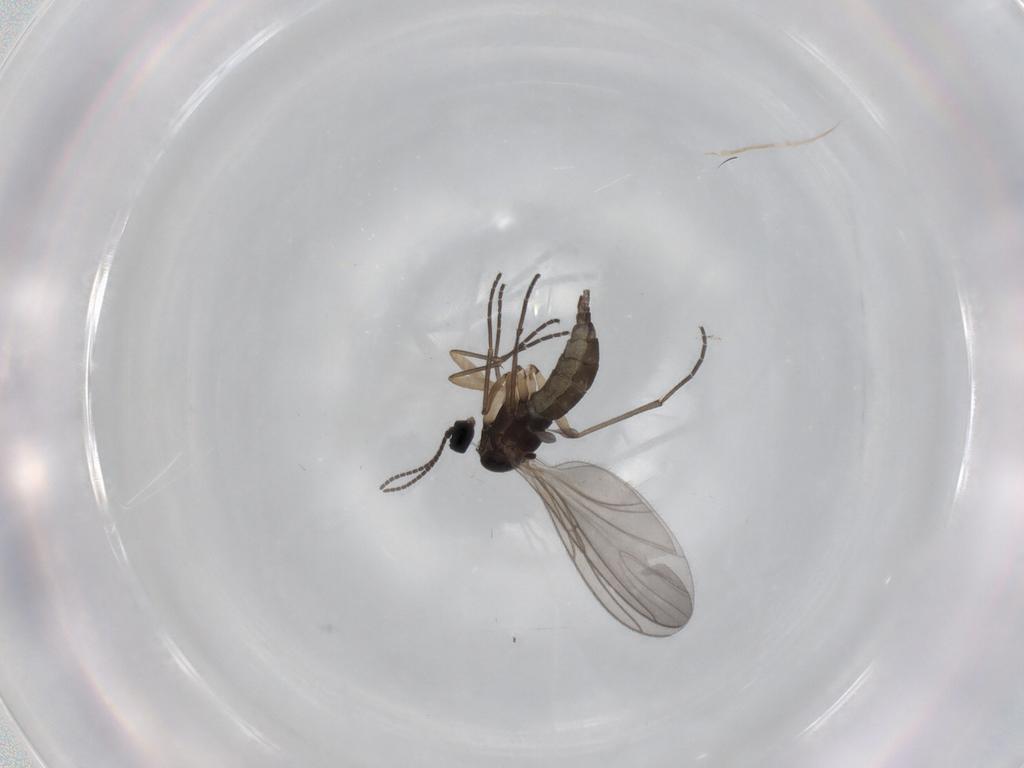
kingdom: Animalia
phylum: Arthropoda
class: Insecta
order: Diptera
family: Sciaridae
